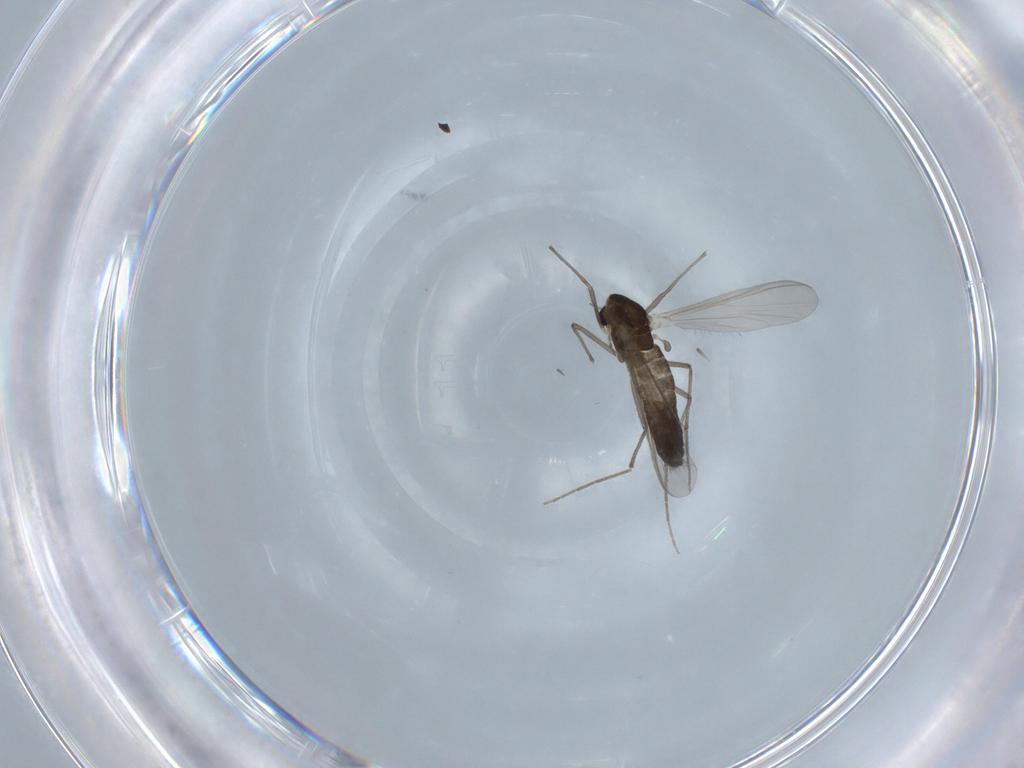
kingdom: Animalia
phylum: Arthropoda
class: Insecta
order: Diptera
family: Chironomidae
